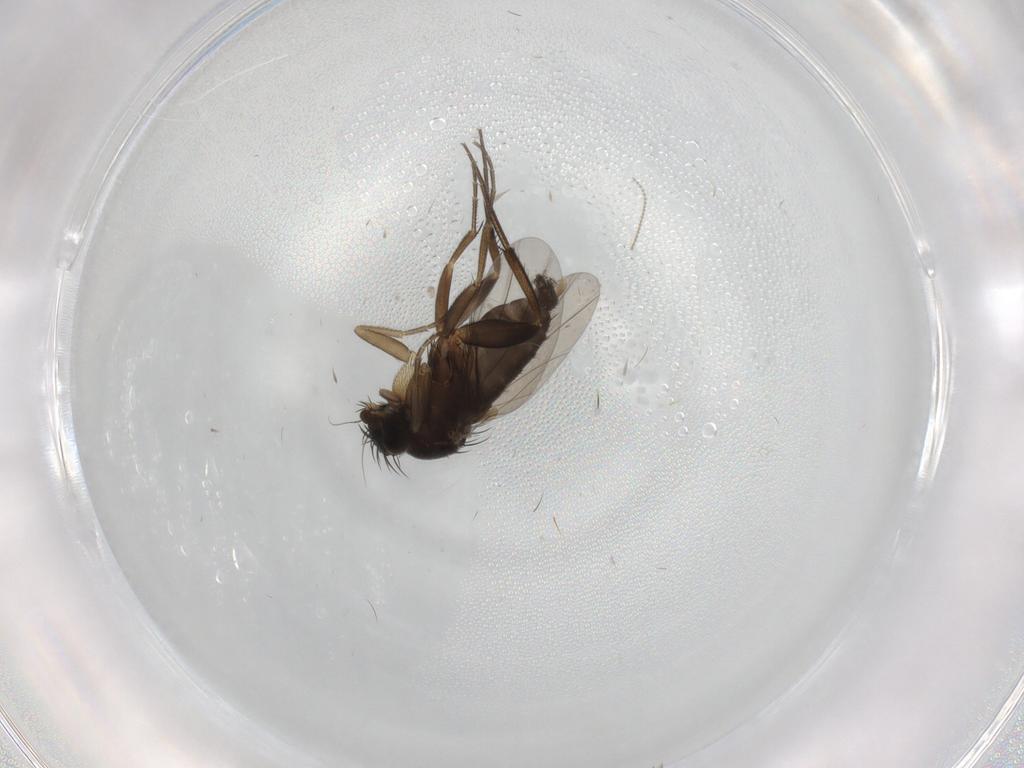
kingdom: Animalia
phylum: Arthropoda
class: Insecta
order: Diptera
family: Phoridae
